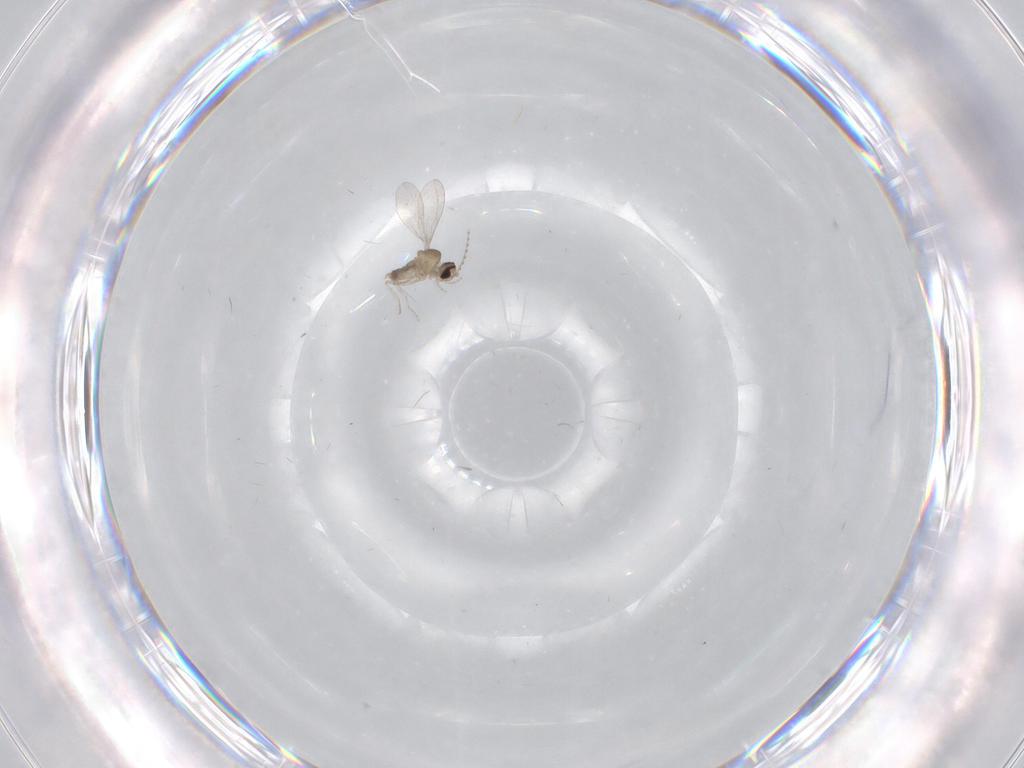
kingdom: Animalia
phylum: Arthropoda
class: Insecta
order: Diptera
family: Cecidomyiidae
